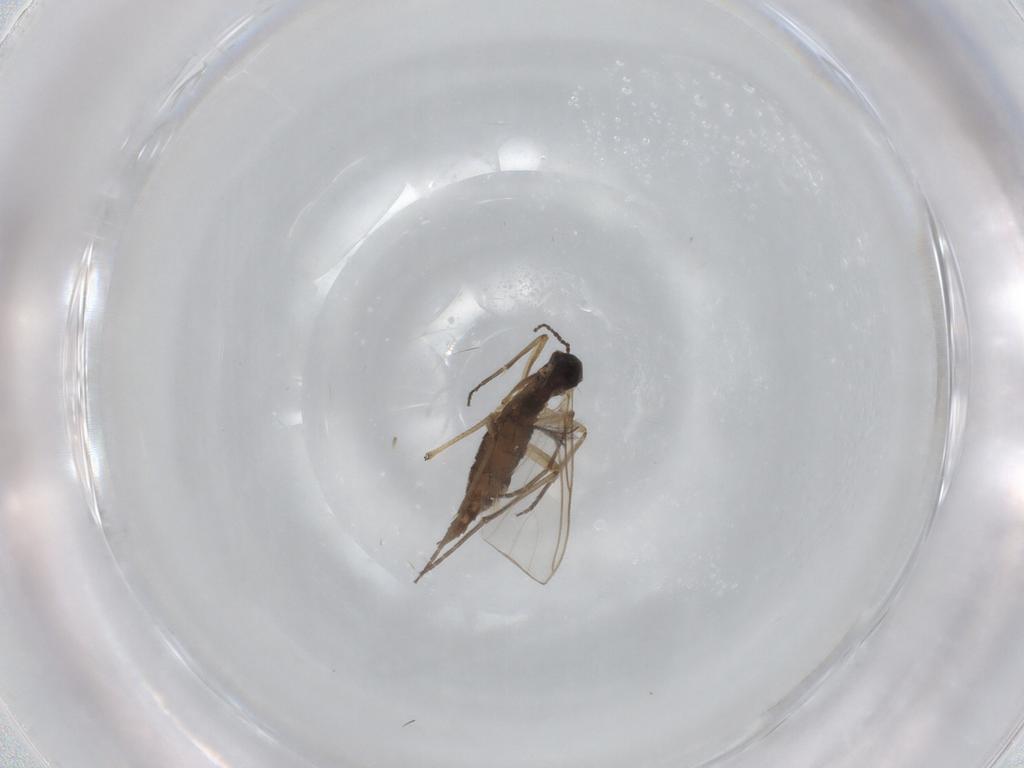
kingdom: Animalia
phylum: Arthropoda
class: Insecta
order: Diptera
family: Sciaridae
